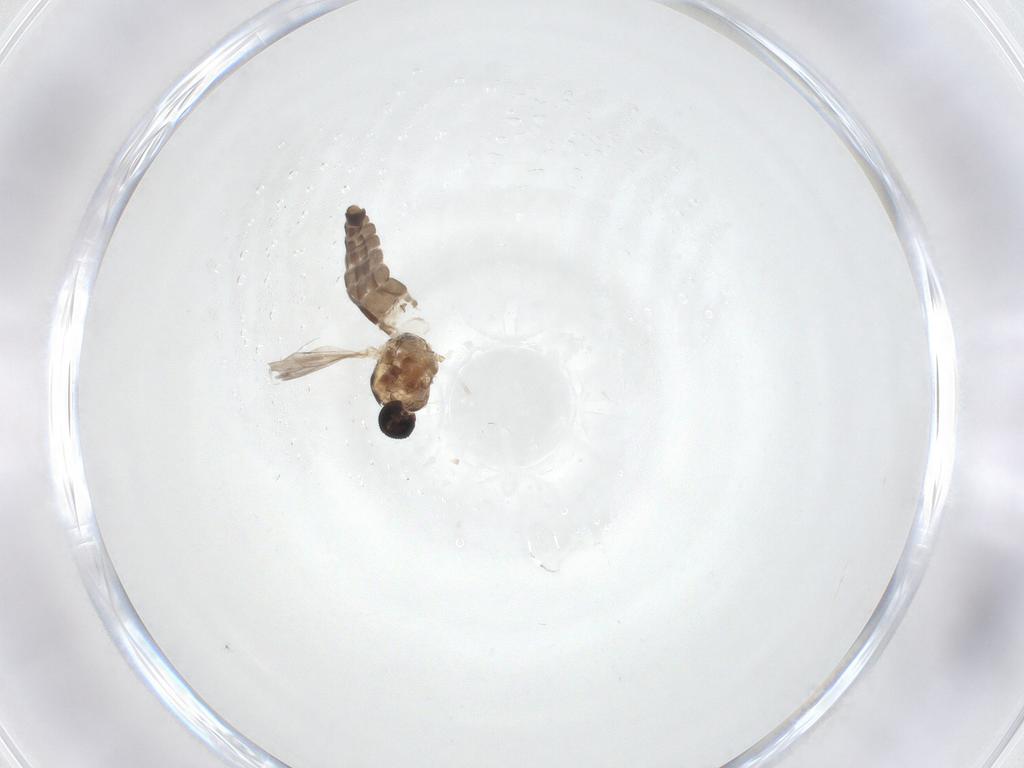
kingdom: Animalia
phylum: Arthropoda
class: Insecta
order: Diptera
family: Ceratopogonidae
